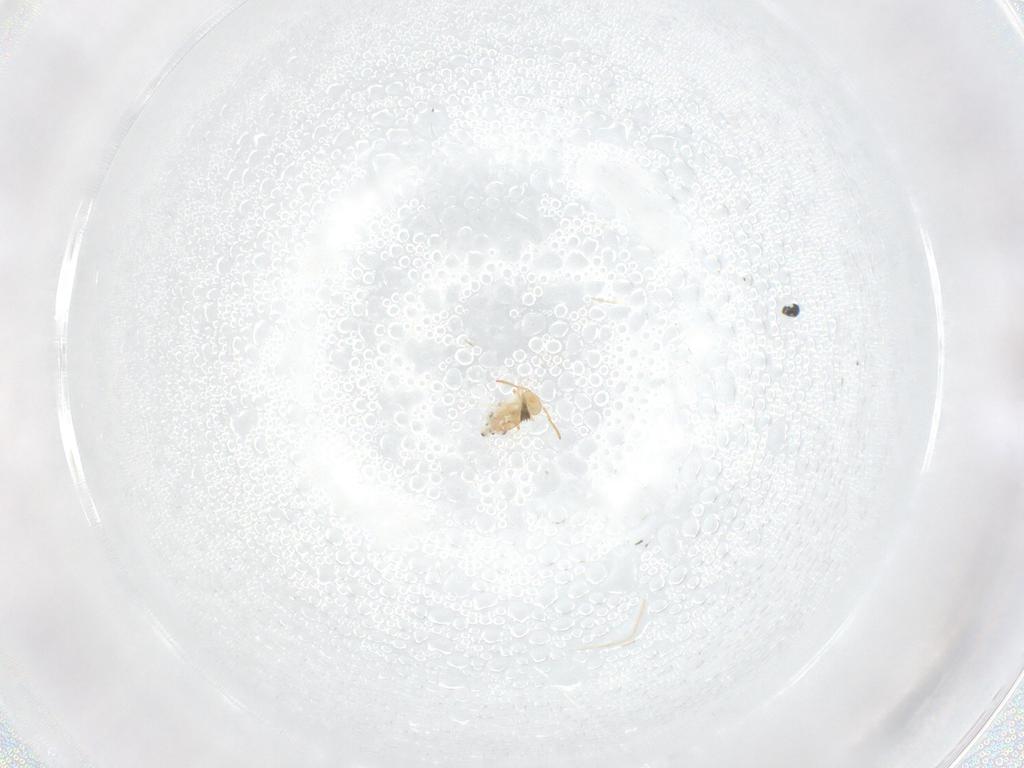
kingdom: Animalia
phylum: Arthropoda
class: Collembola
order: Symphypleona
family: Bourletiellidae
